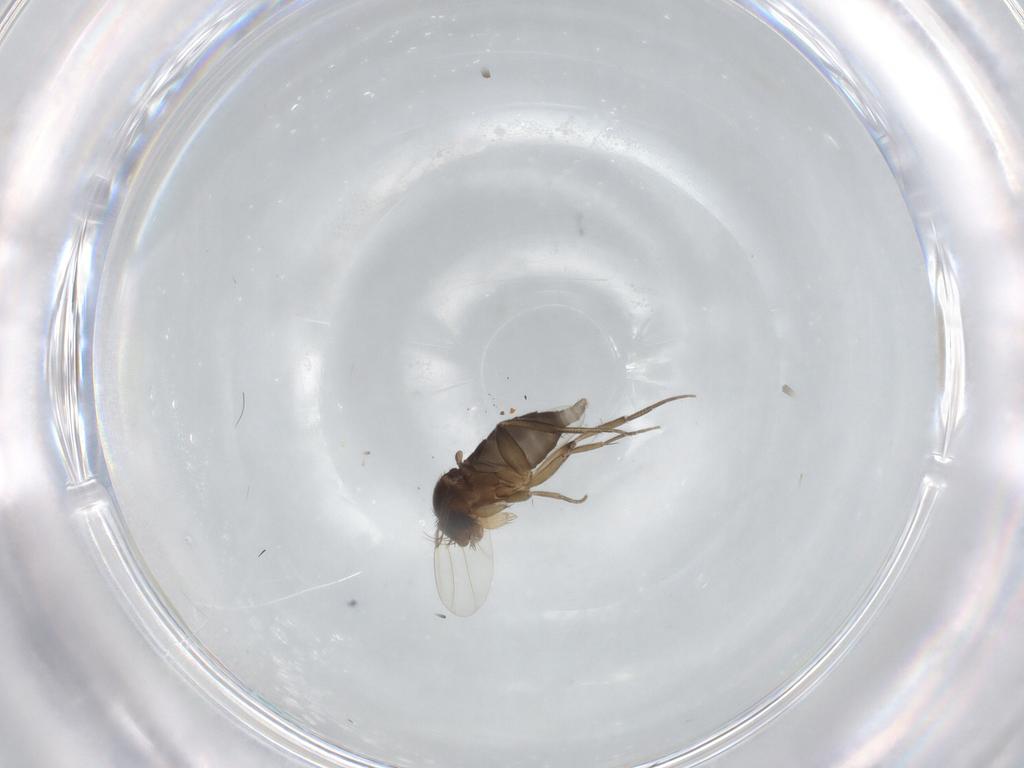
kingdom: Animalia
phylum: Arthropoda
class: Insecta
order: Diptera
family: Phoridae
